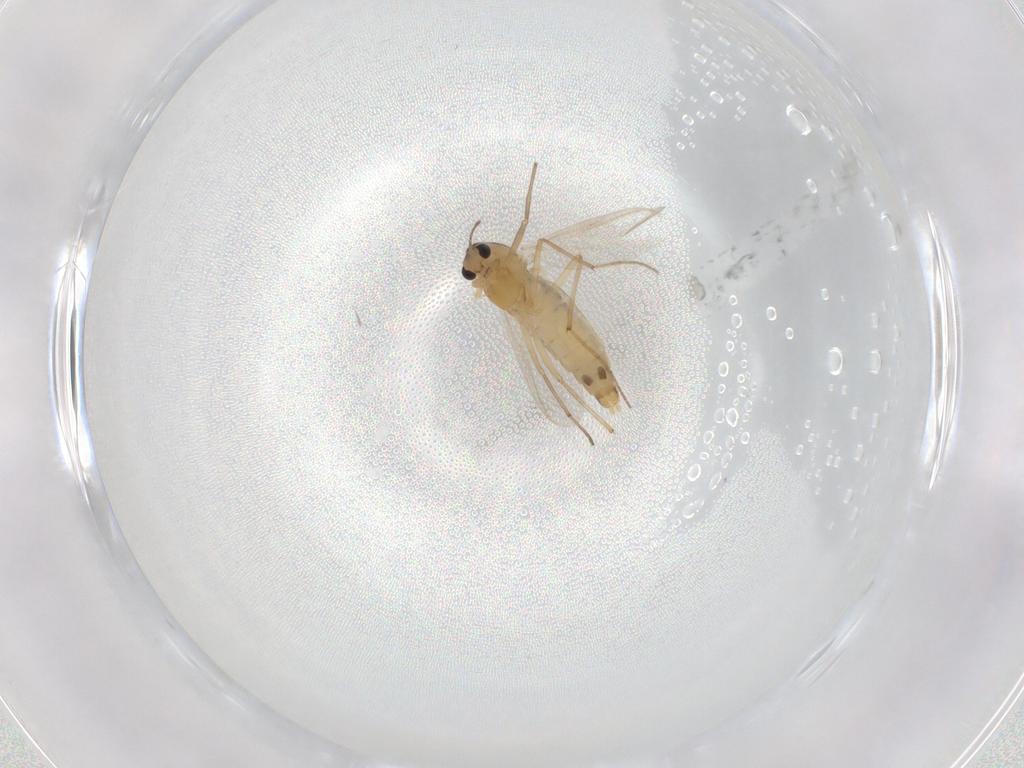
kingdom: Animalia
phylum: Arthropoda
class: Insecta
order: Diptera
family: Chironomidae
